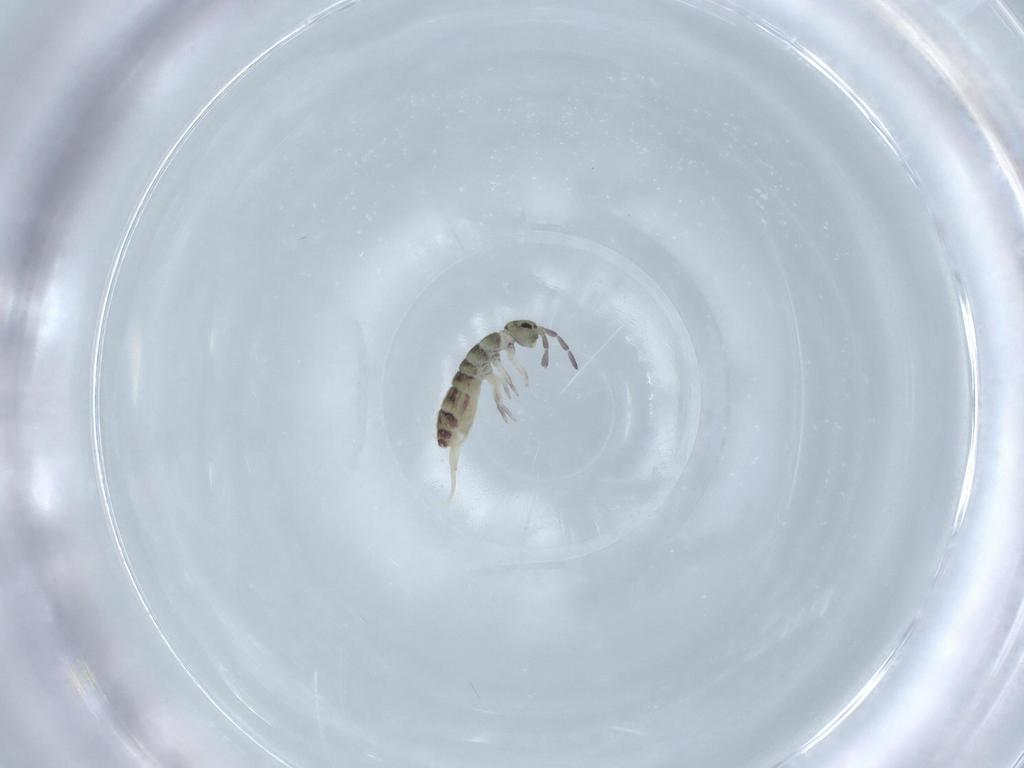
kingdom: Animalia
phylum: Arthropoda
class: Collembola
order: Entomobryomorpha
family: Isotomidae
